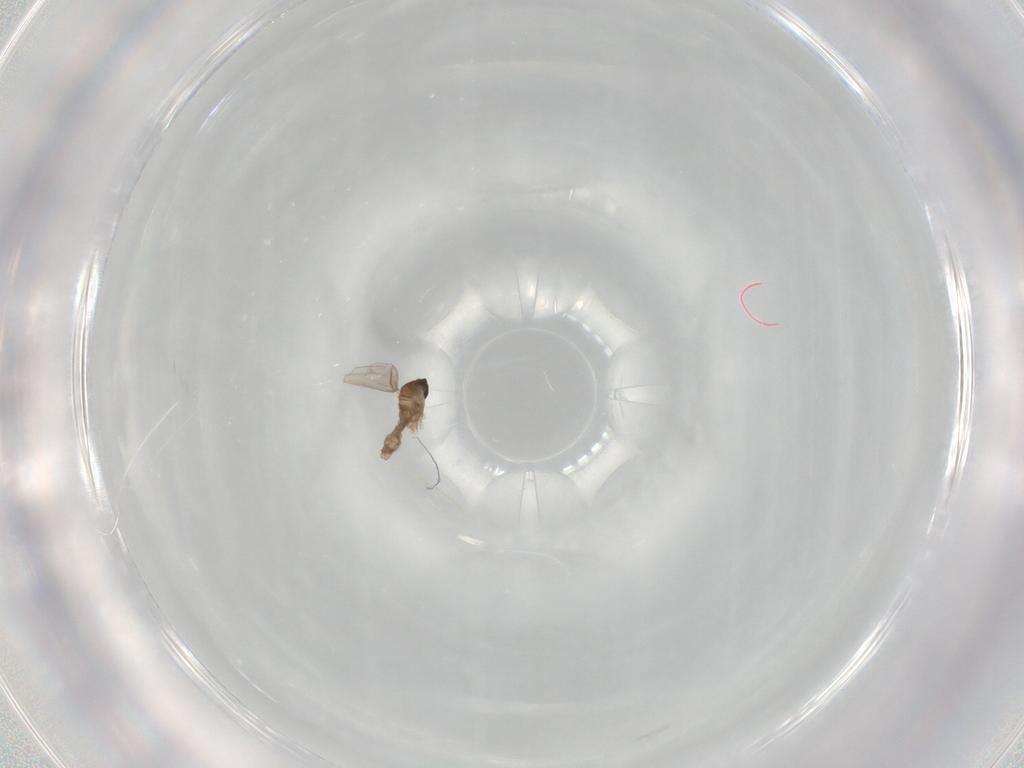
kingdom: Animalia
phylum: Arthropoda
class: Insecta
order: Diptera
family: Cecidomyiidae
